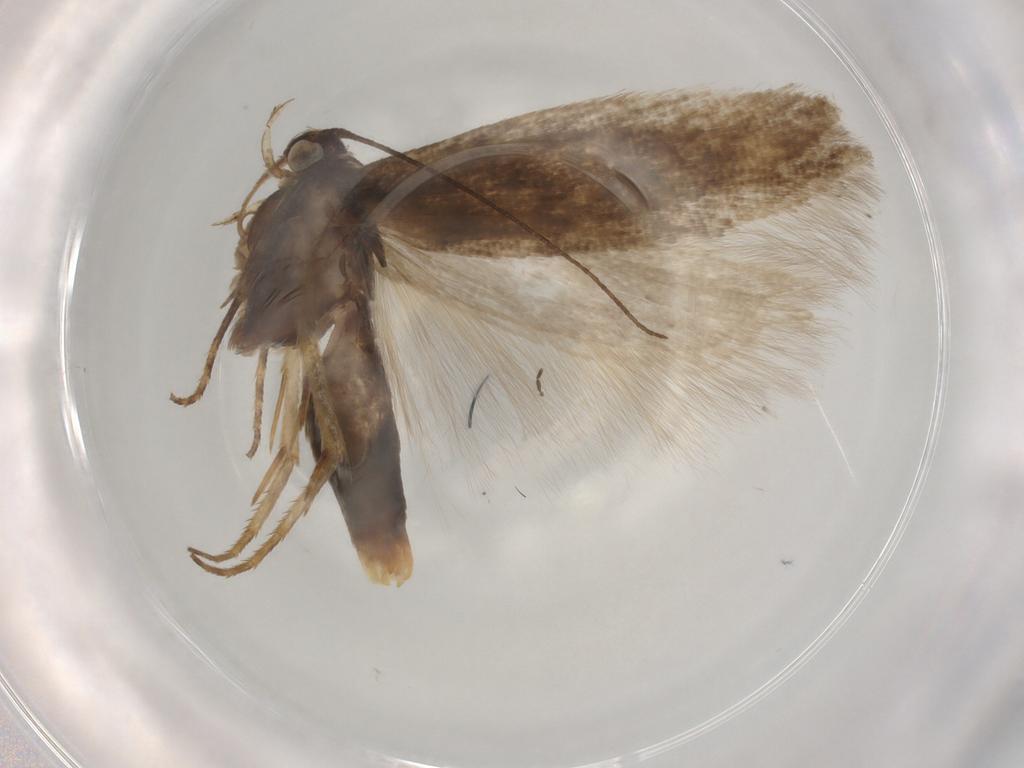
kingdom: Animalia
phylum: Arthropoda
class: Insecta
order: Lepidoptera
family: Gelechiidae
